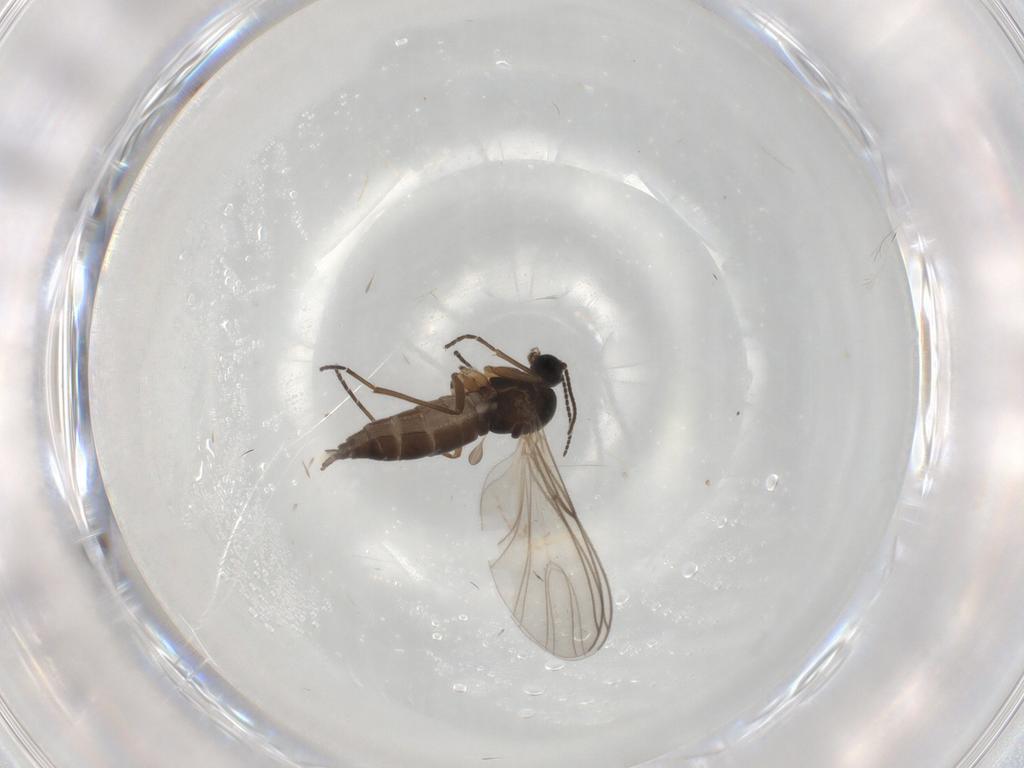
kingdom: Animalia
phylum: Arthropoda
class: Insecta
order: Diptera
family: Sciaridae
